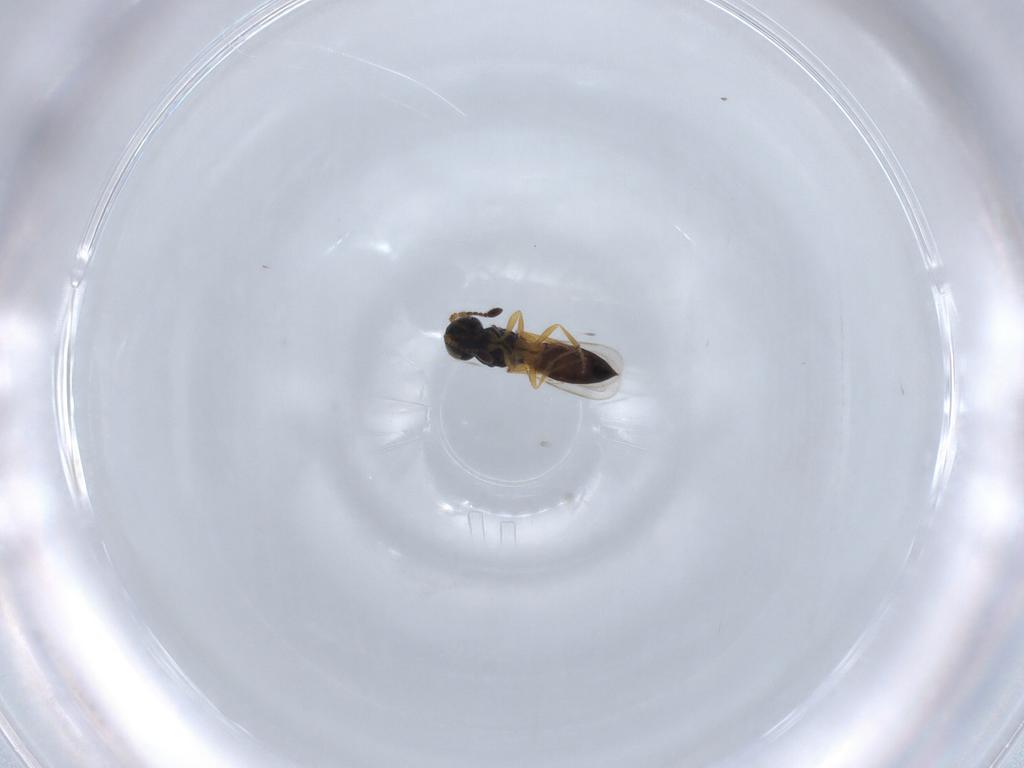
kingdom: Animalia
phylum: Arthropoda
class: Insecta
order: Hymenoptera
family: Scelionidae
